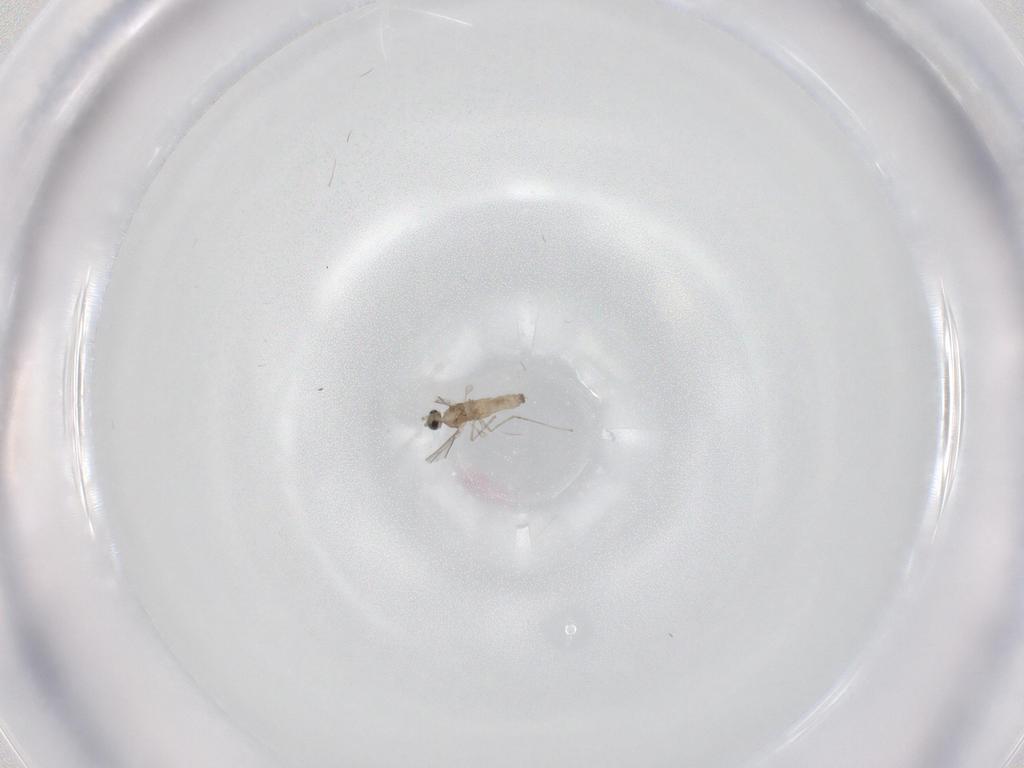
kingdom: Animalia
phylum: Arthropoda
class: Insecta
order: Diptera
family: Cecidomyiidae
